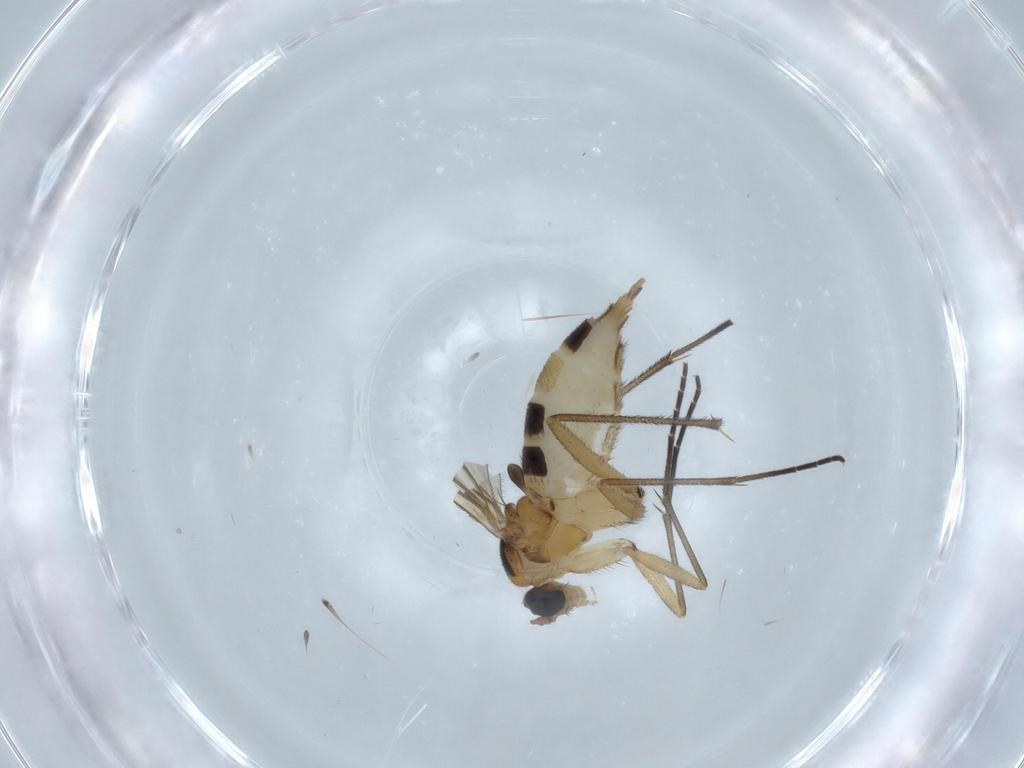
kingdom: Animalia
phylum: Arthropoda
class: Insecta
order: Diptera
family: Sciaridae
